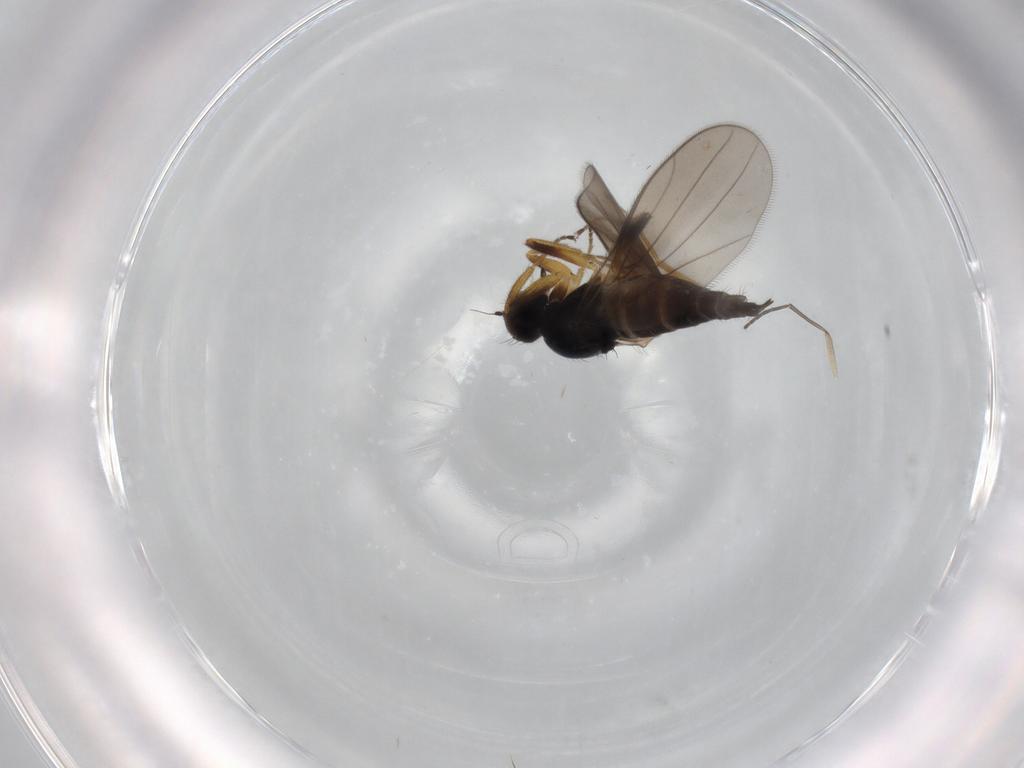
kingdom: Animalia
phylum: Arthropoda
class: Insecta
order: Diptera
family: Hybotidae
